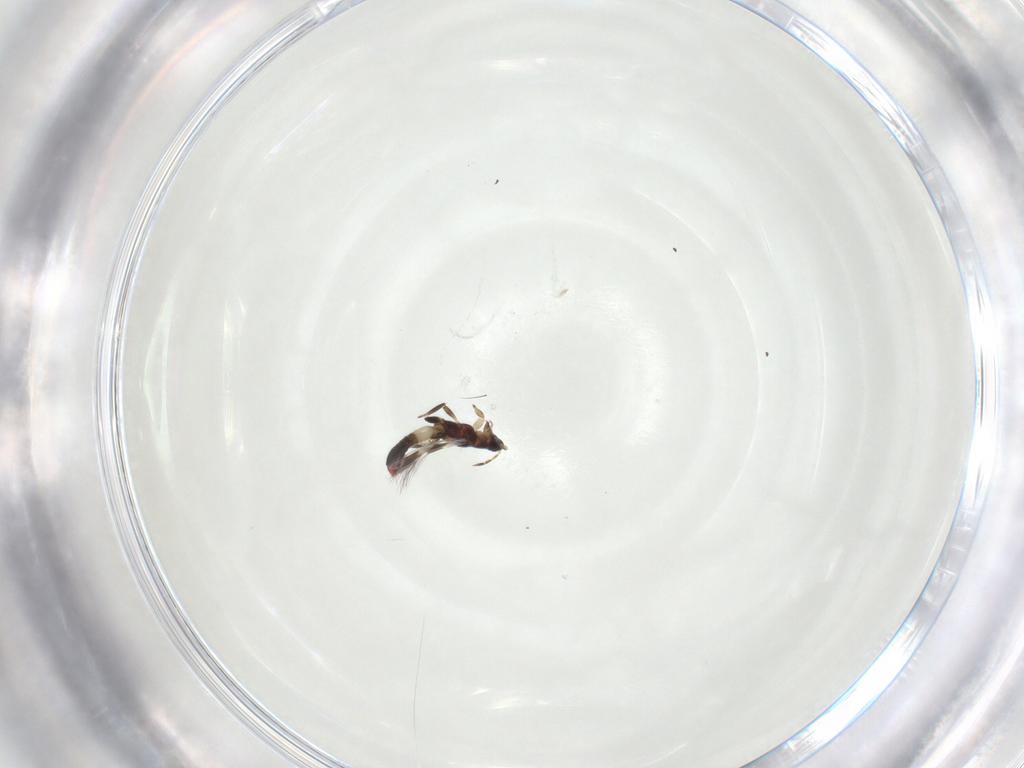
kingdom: Animalia
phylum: Arthropoda
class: Insecta
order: Thysanoptera
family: Aeolothripidae
